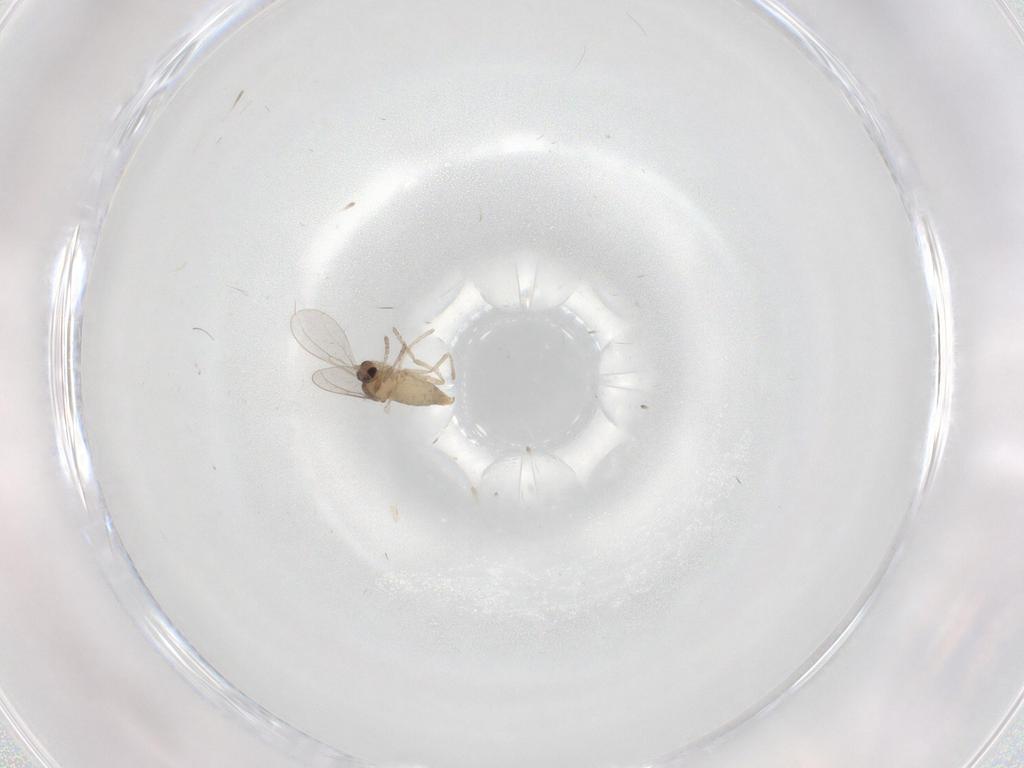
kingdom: Animalia
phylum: Arthropoda
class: Insecta
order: Diptera
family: Cecidomyiidae
